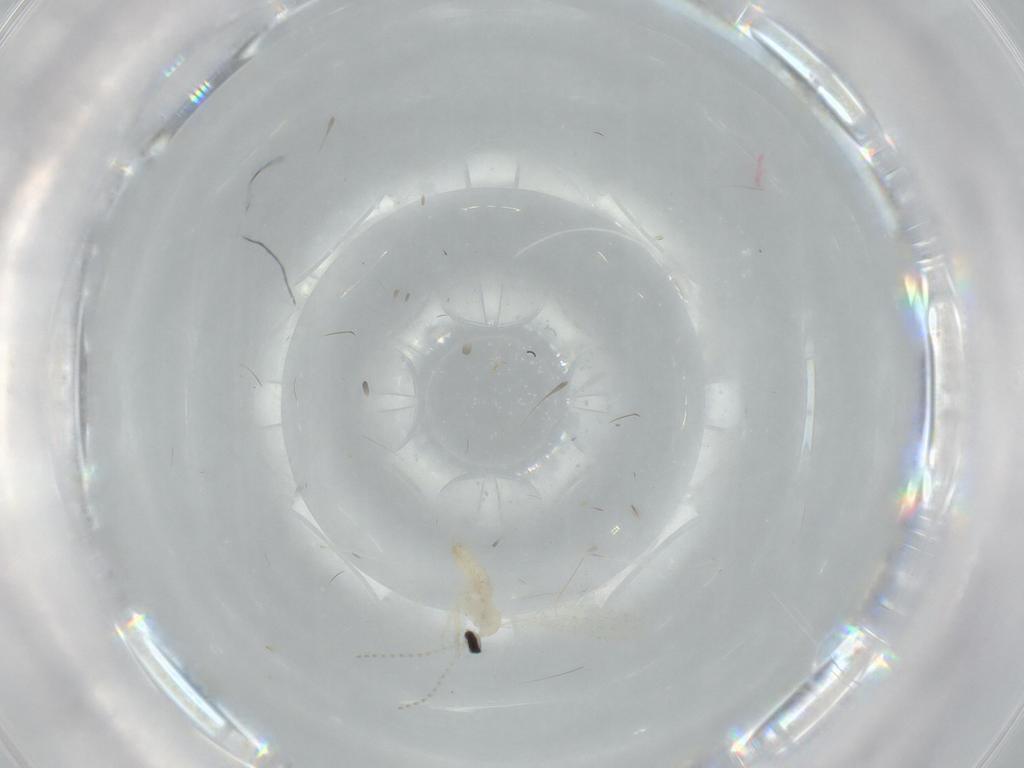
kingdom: Animalia
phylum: Arthropoda
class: Insecta
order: Diptera
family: Cecidomyiidae
